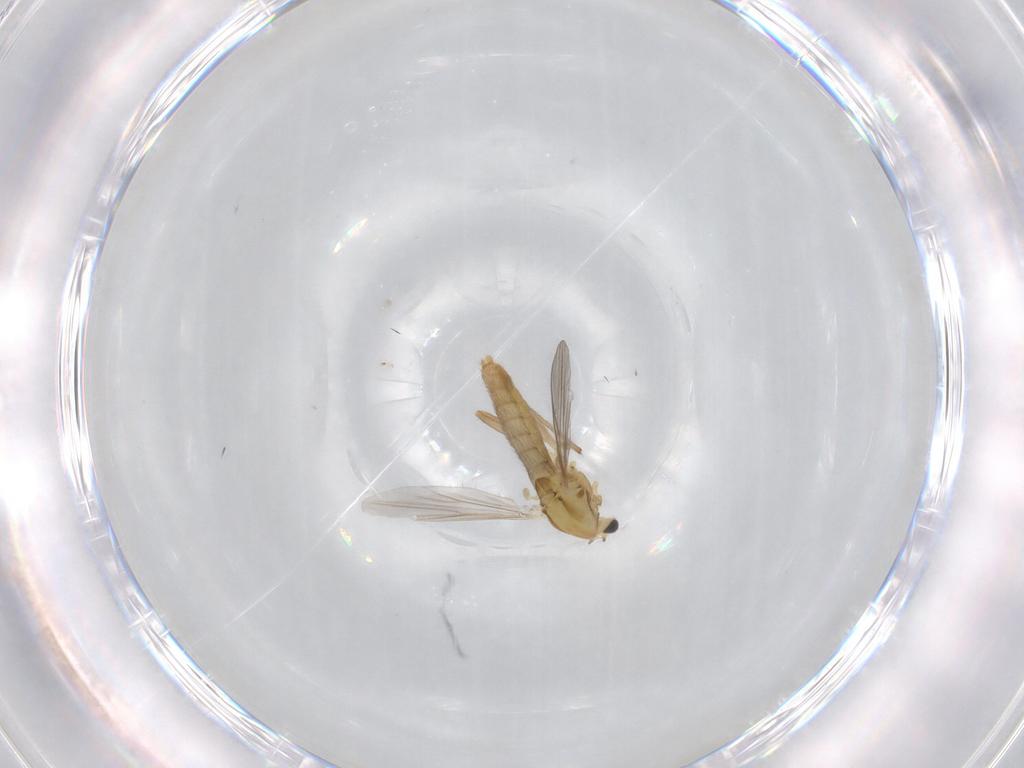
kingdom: Animalia
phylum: Arthropoda
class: Insecta
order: Diptera
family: Chironomidae
